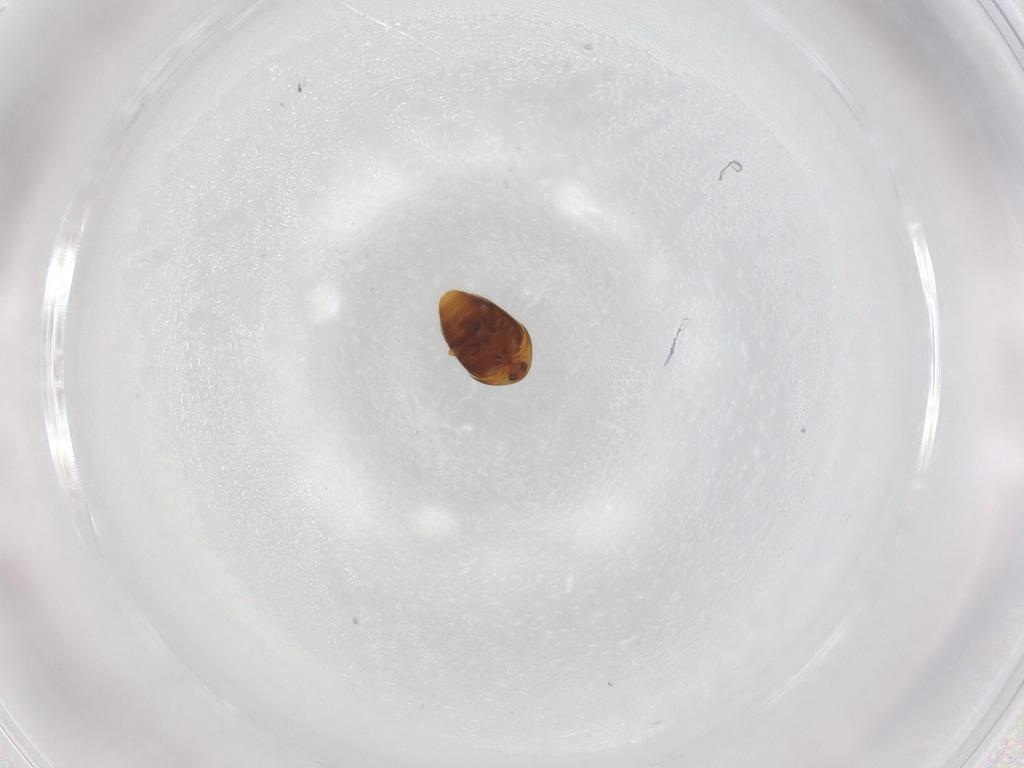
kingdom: Animalia
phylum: Arthropoda
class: Insecta
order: Coleoptera
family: Corylophidae
